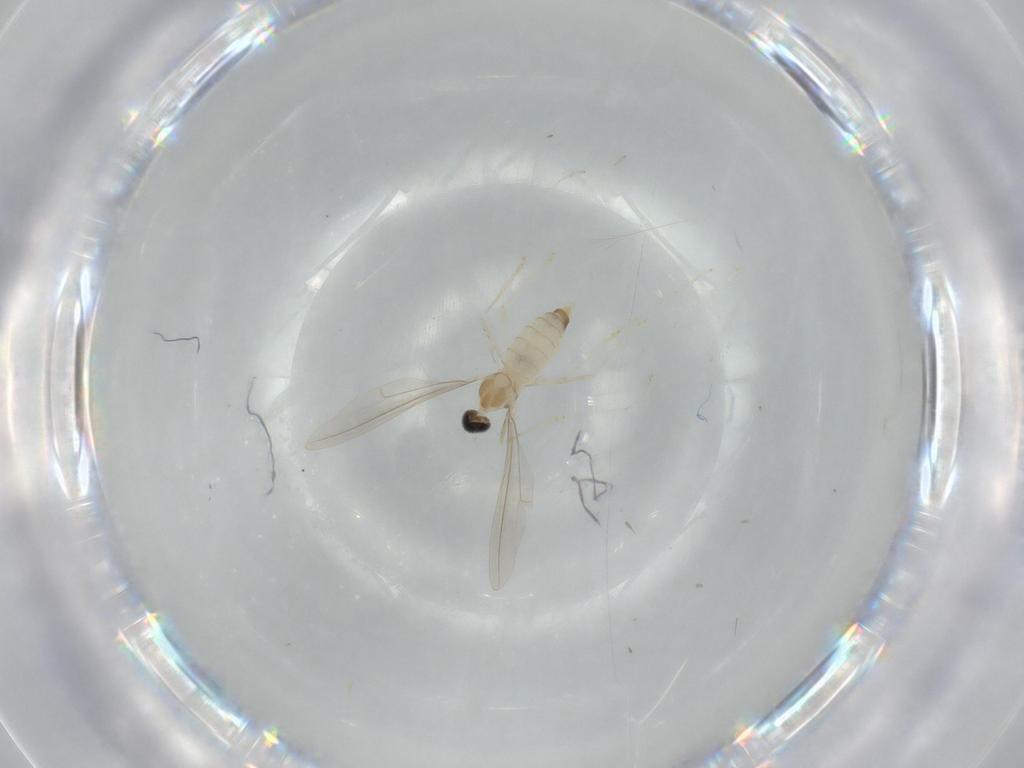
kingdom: Animalia
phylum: Arthropoda
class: Insecta
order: Diptera
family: Cecidomyiidae
